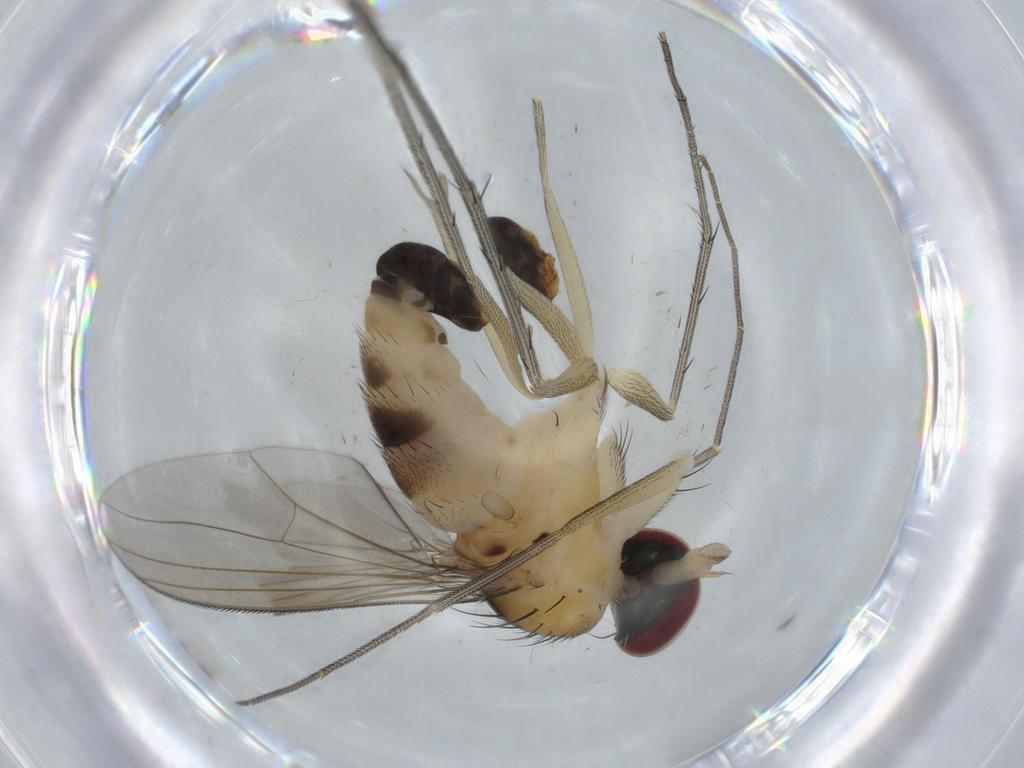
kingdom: Animalia
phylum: Arthropoda
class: Insecta
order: Diptera
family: Dolichopodidae
